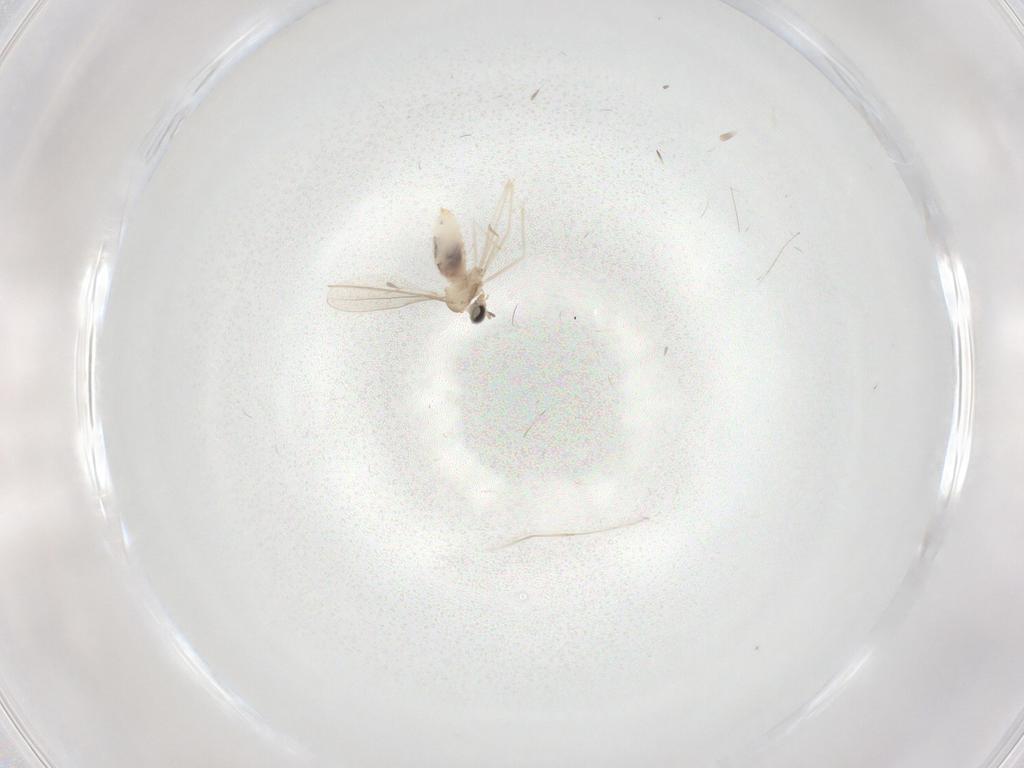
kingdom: Animalia
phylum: Arthropoda
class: Insecta
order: Diptera
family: Cecidomyiidae
